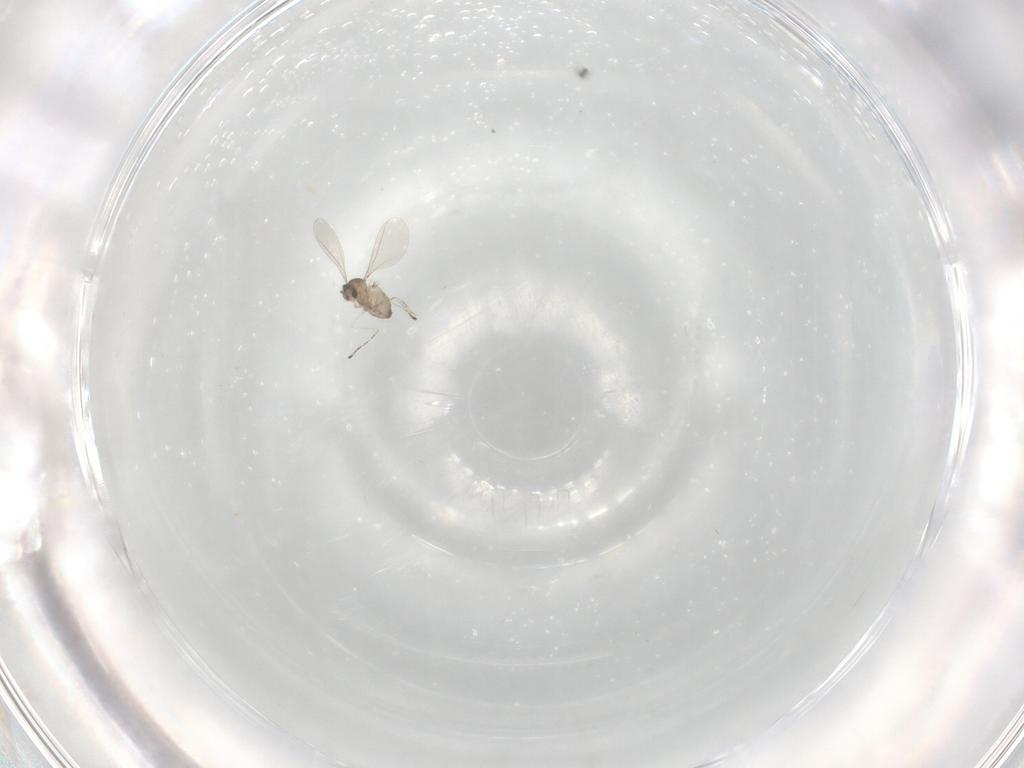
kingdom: Animalia
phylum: Arthropoda
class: Insecta
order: Diptera
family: Cecidomyiidae
